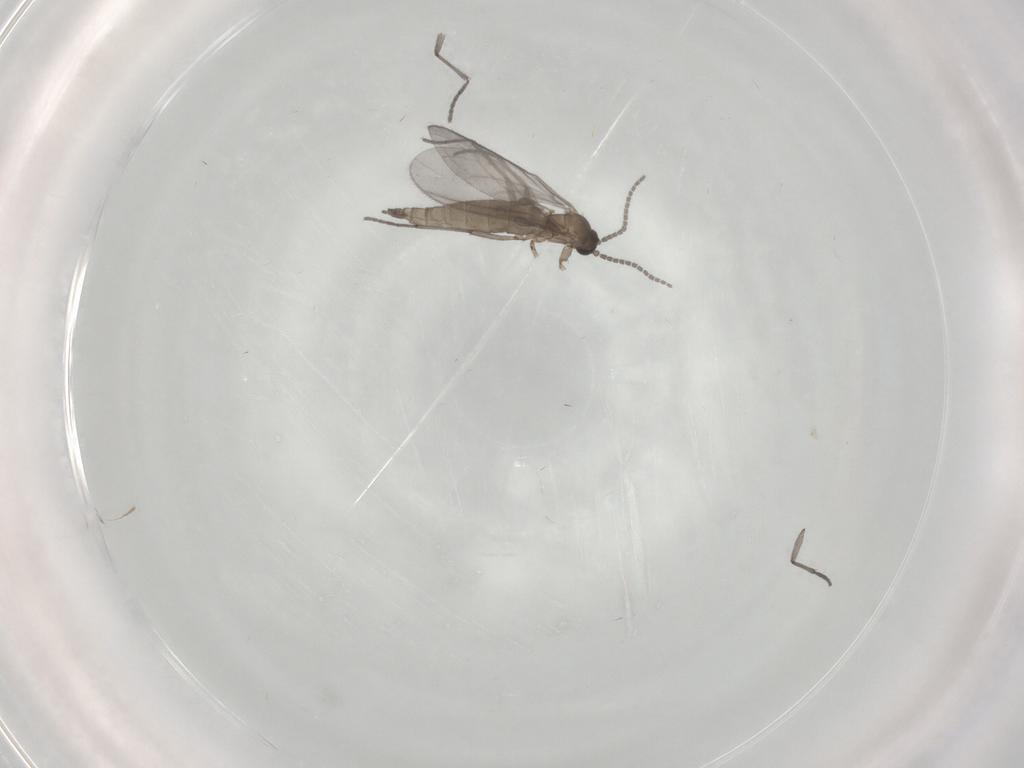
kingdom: Animalia
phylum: Arthropoda
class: Insecta
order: Diptera
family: Sciaridae
